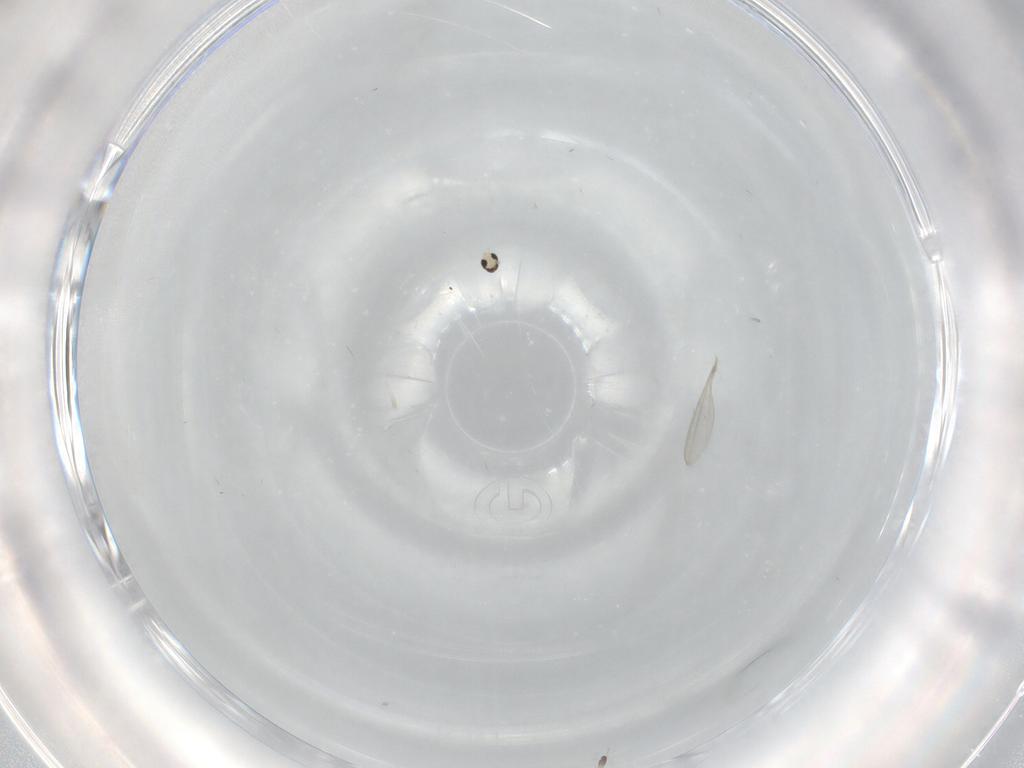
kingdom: Animalia
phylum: Arthropoda
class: Insecta
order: Diptera
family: Cecidomyiidae
